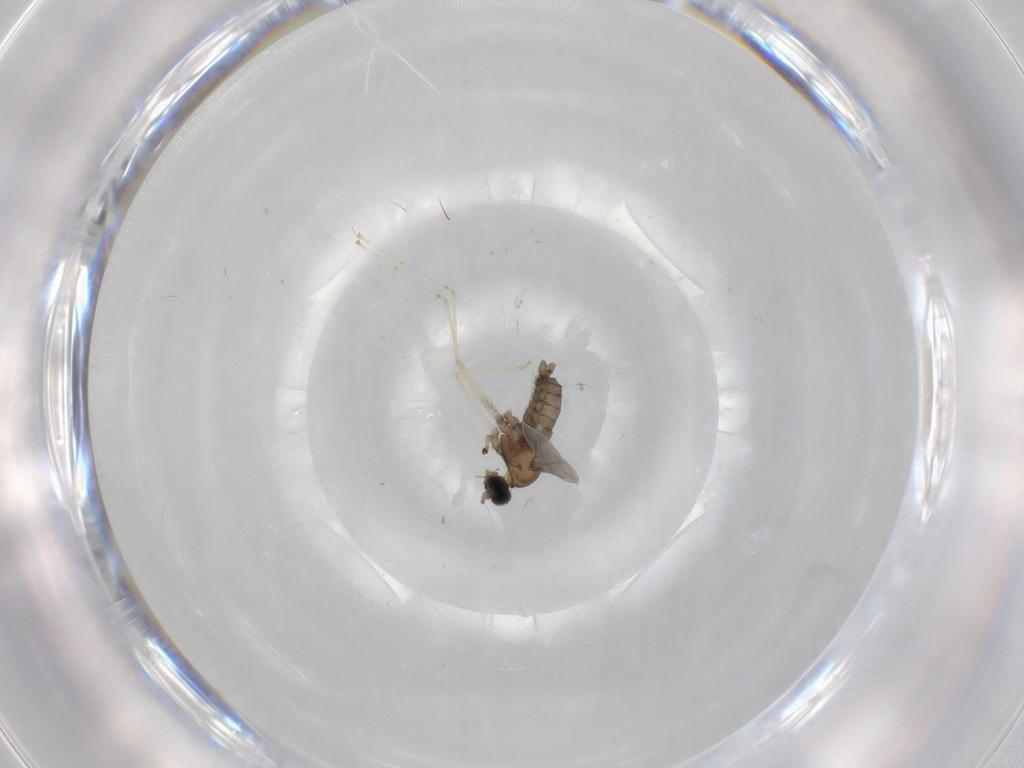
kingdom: Animalia
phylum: Arthropoda
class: Insecta
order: Diptera
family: Cecidomyiidae
